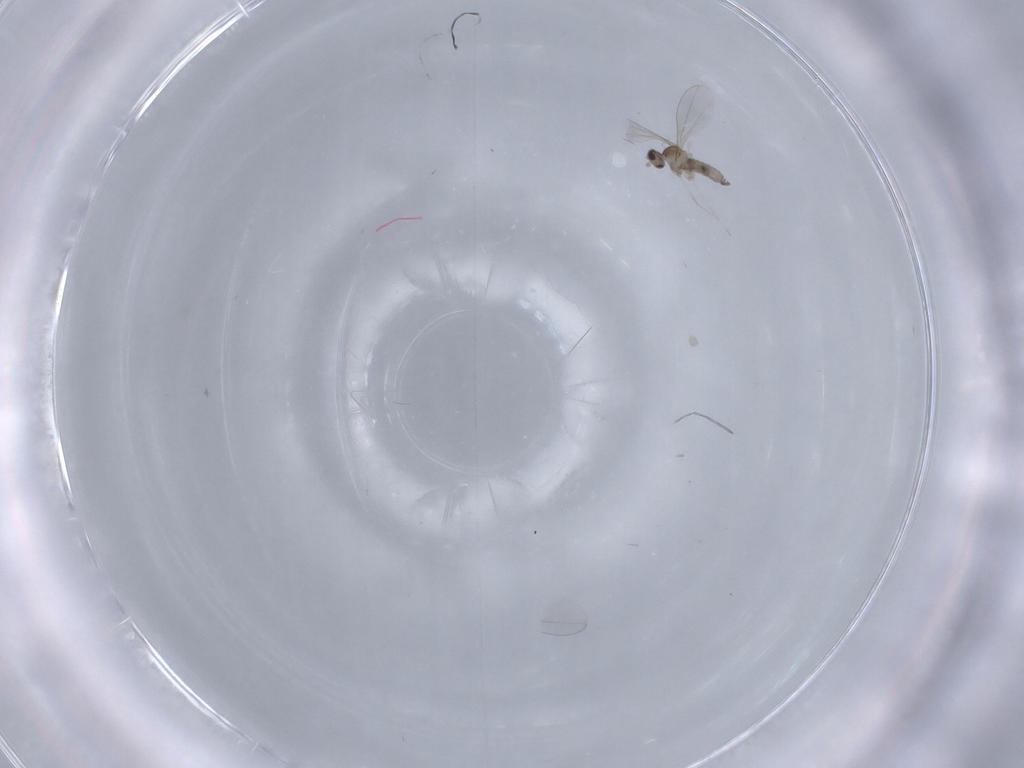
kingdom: Animalia
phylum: Arthropoda
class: Insecta
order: Diptera
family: Cecidomyiidae
